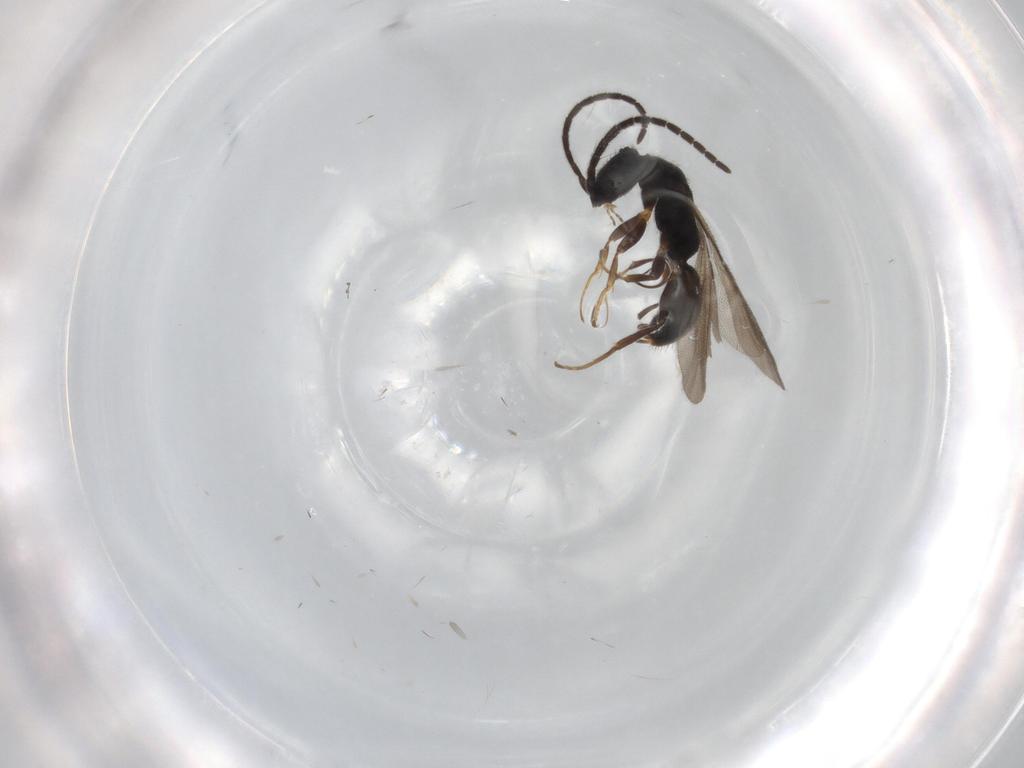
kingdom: Animalia
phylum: Arthropoda
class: Insecta
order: Hymenoptera
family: Bethylidae
